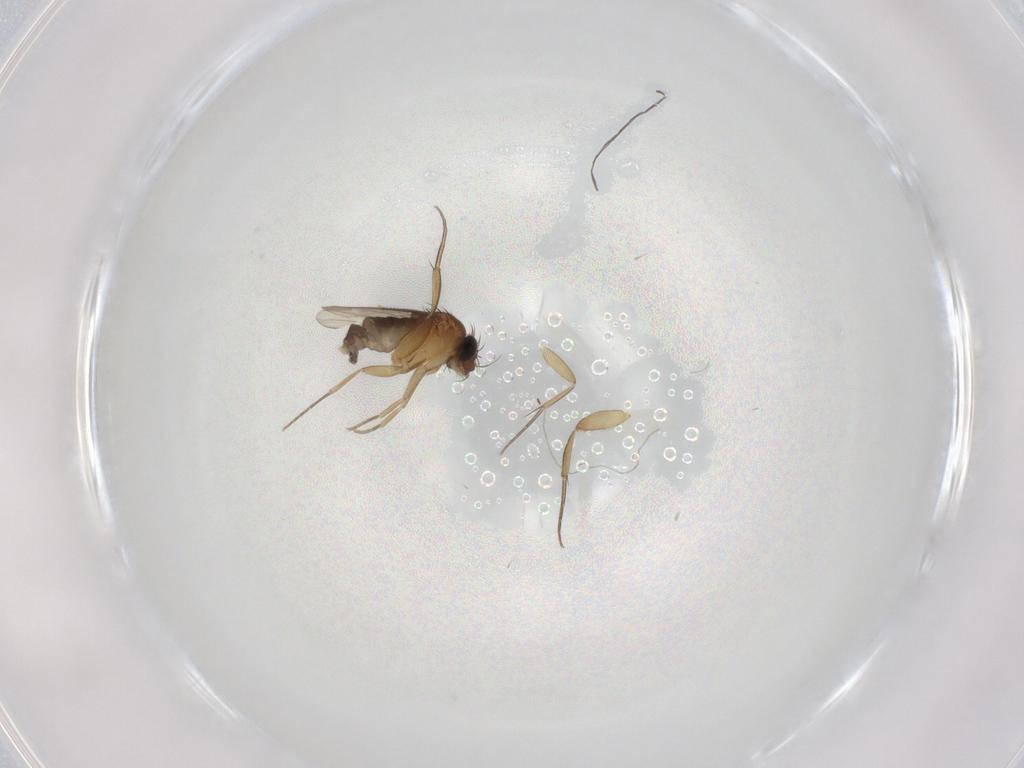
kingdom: Animalia
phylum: Arthropoda
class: Insecta
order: Diptera
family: Phoridae
